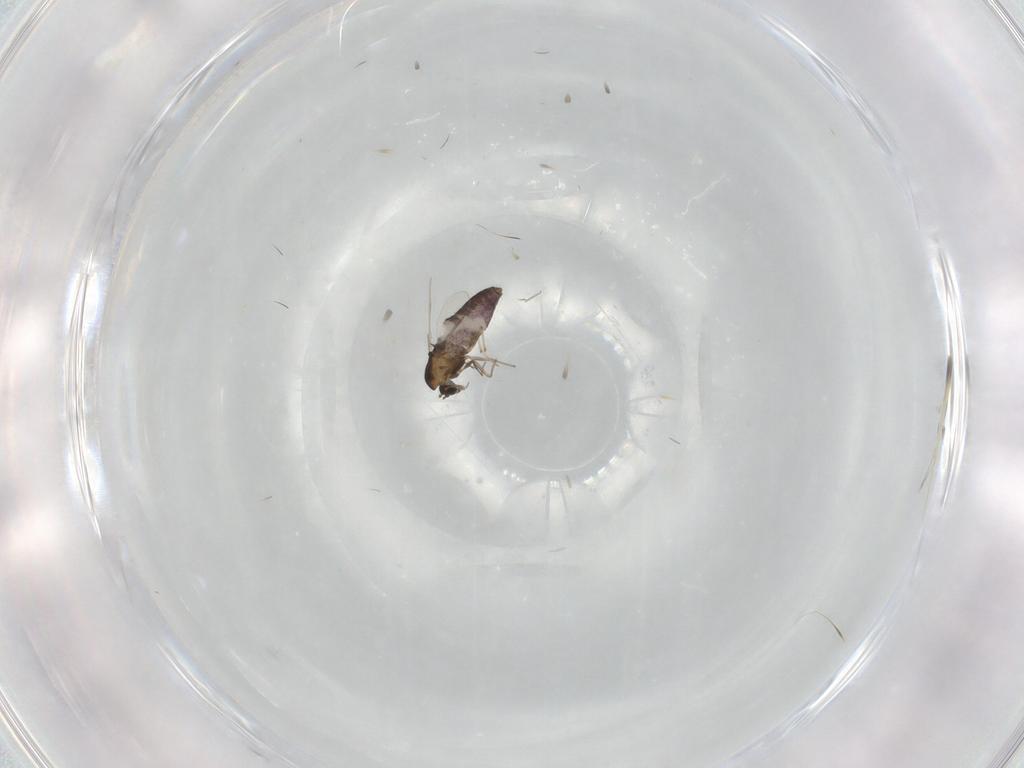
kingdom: Animalia
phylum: Arthropoda
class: Insecta
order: Diptera
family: Chironomidae
